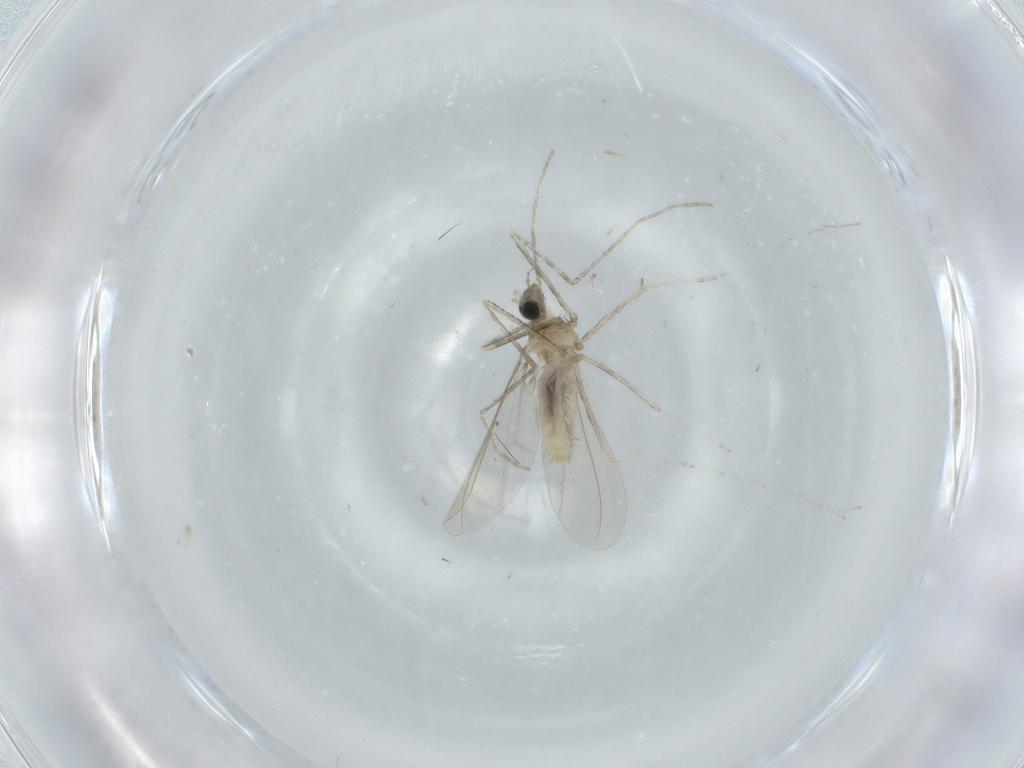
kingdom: Animalia
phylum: Arthropoda
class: Insecta
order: Diptera
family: Cecidomyiidae
